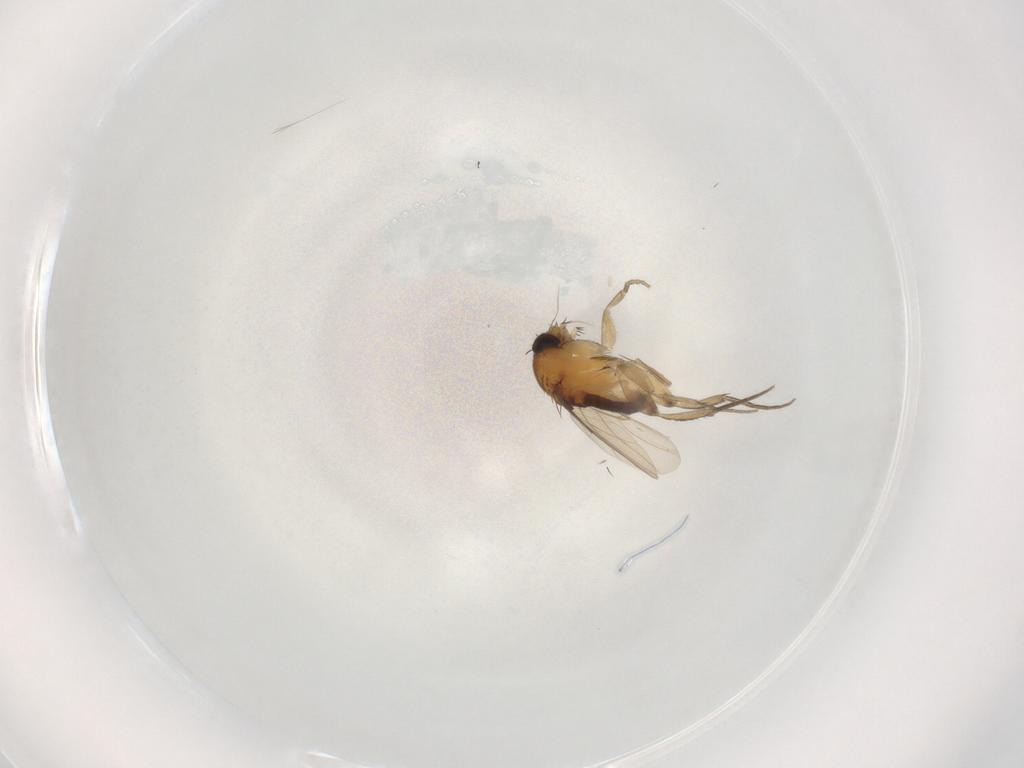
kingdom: Animalia
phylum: Arthropoda
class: Insecta
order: Diptera
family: Phoridae
